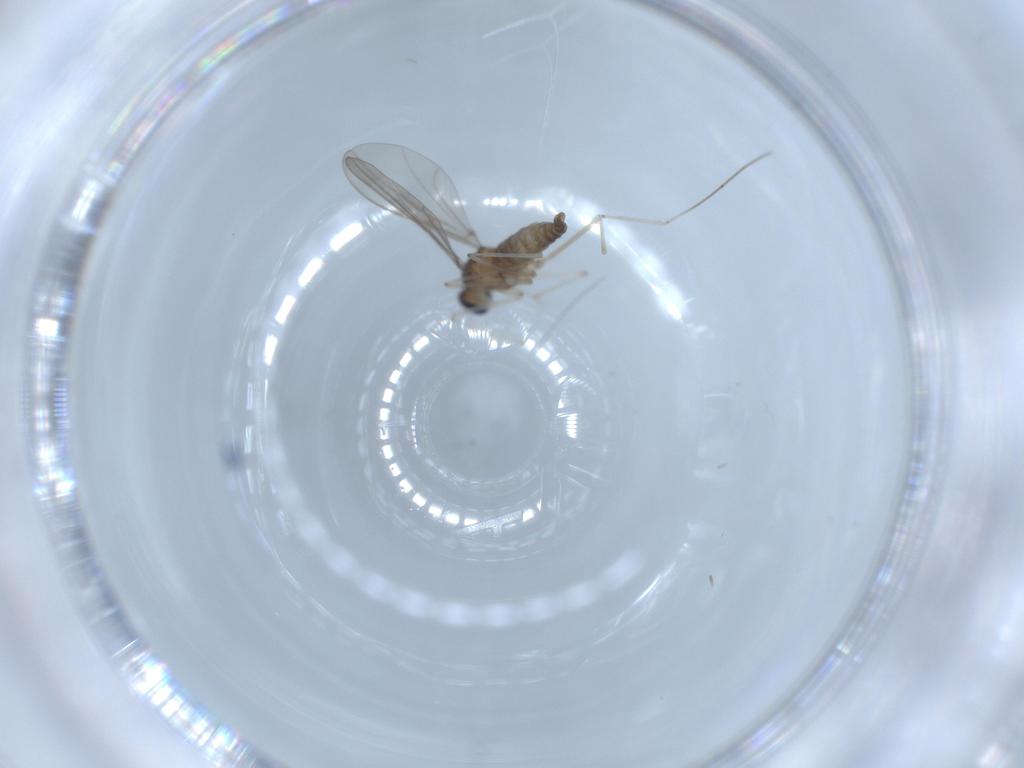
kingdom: Animalia
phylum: Arthropoda
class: Insecta
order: Diptera
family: Cecidomyiidae
